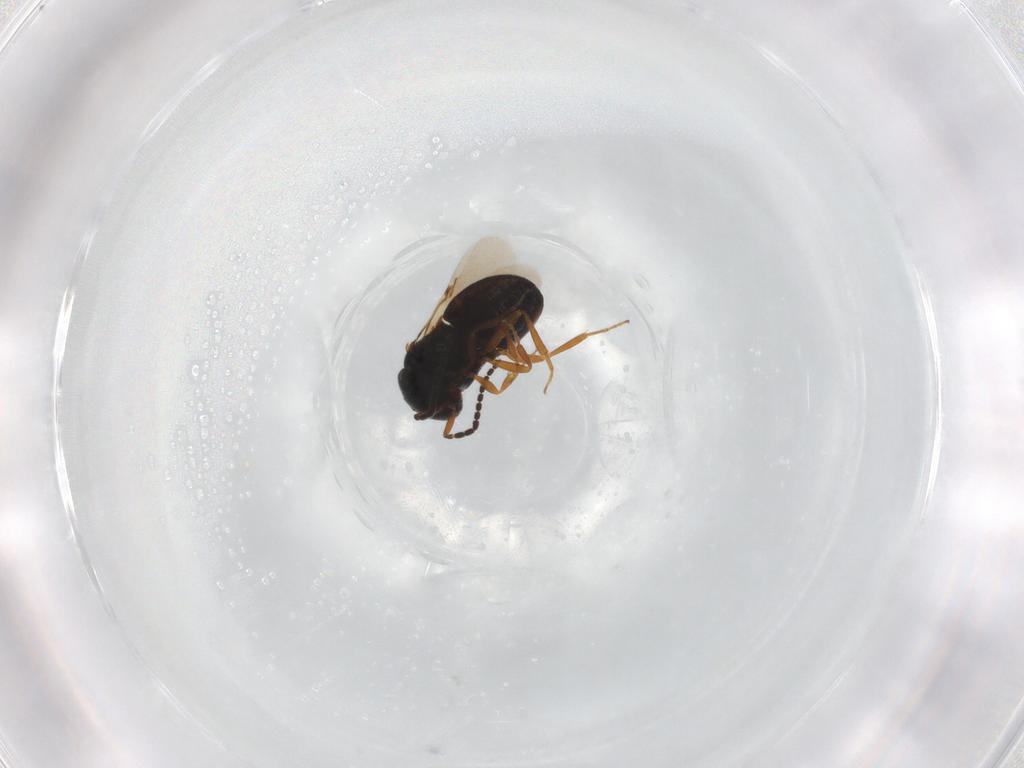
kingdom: Animalia
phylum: Arthropoda
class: Insecta
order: Hymenoptera
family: Scelionidae
